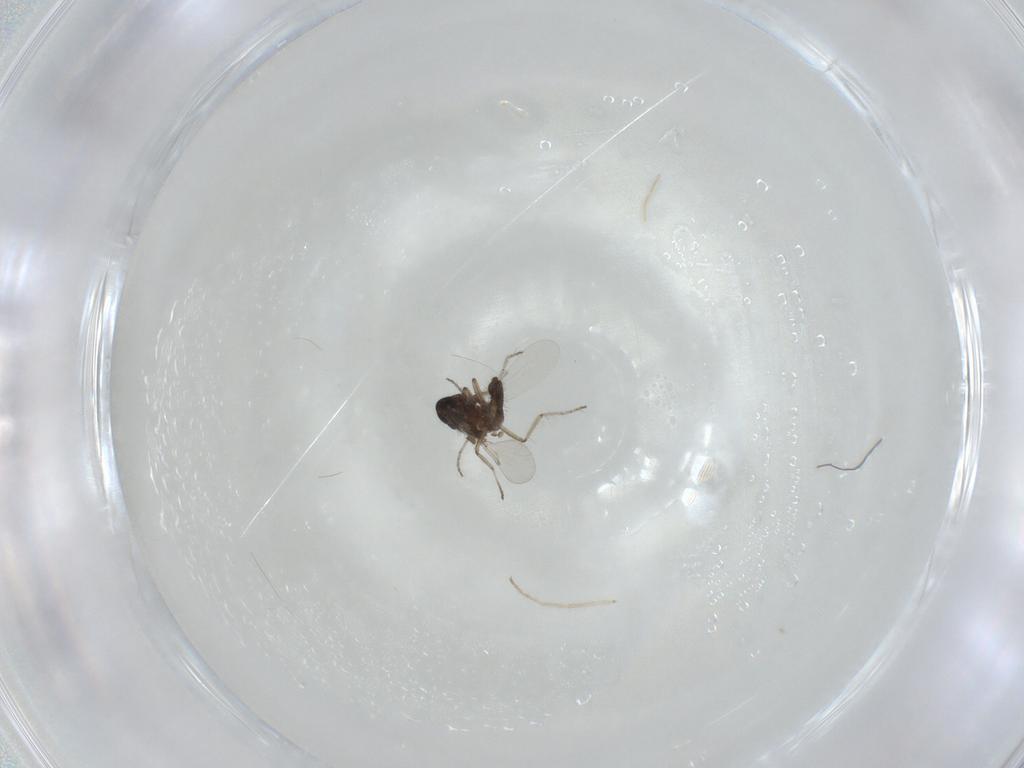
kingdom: Animalia
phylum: Arthropoda
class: Insecta
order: Diptera
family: Ceratopogonidae
